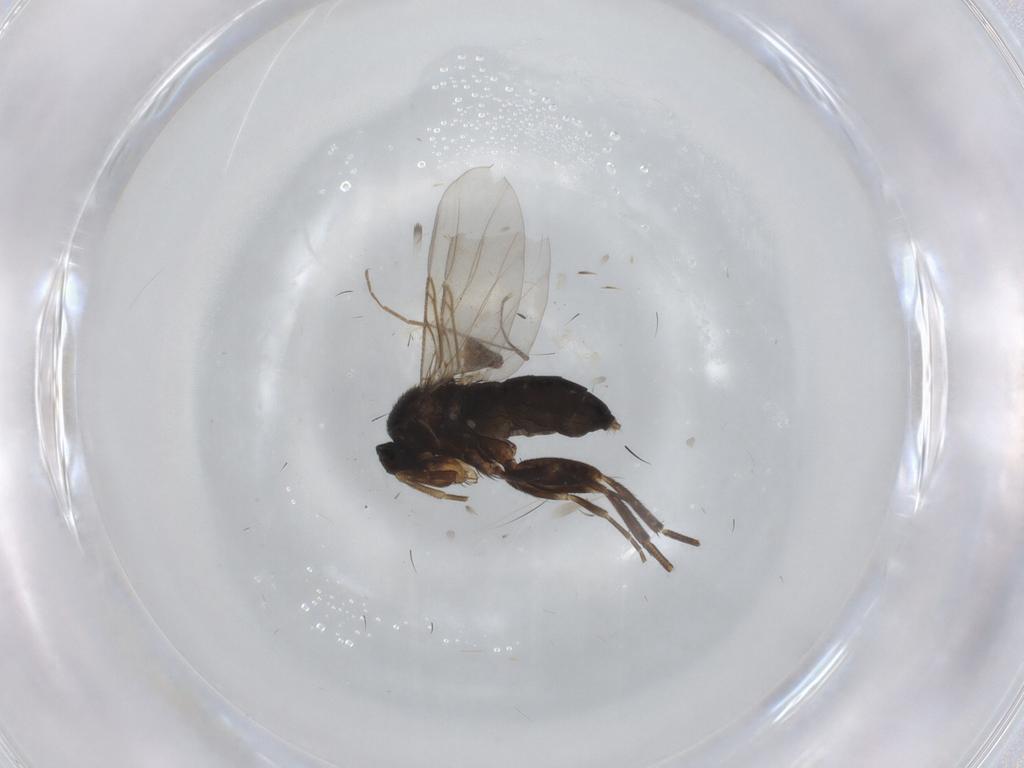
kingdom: Animalia
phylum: Arthropoda
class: Insecta
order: Diptera
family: Phoridae
